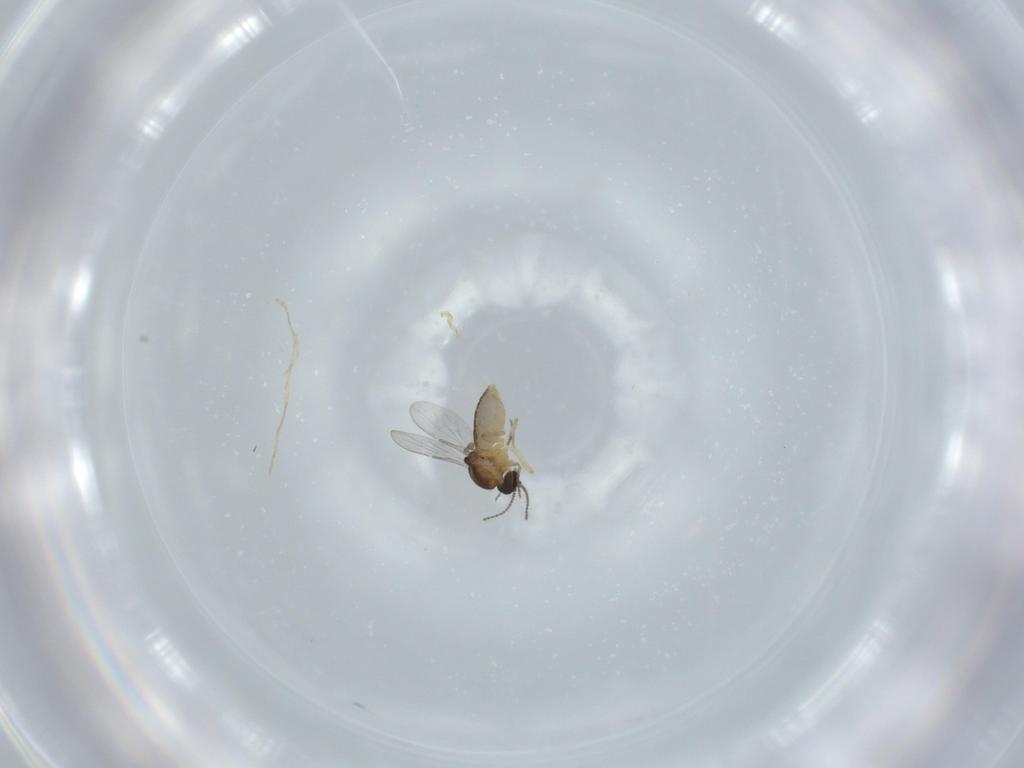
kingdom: Animalia
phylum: Arthropoda
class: Insecta
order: Diptera
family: Ceratopogonidae
